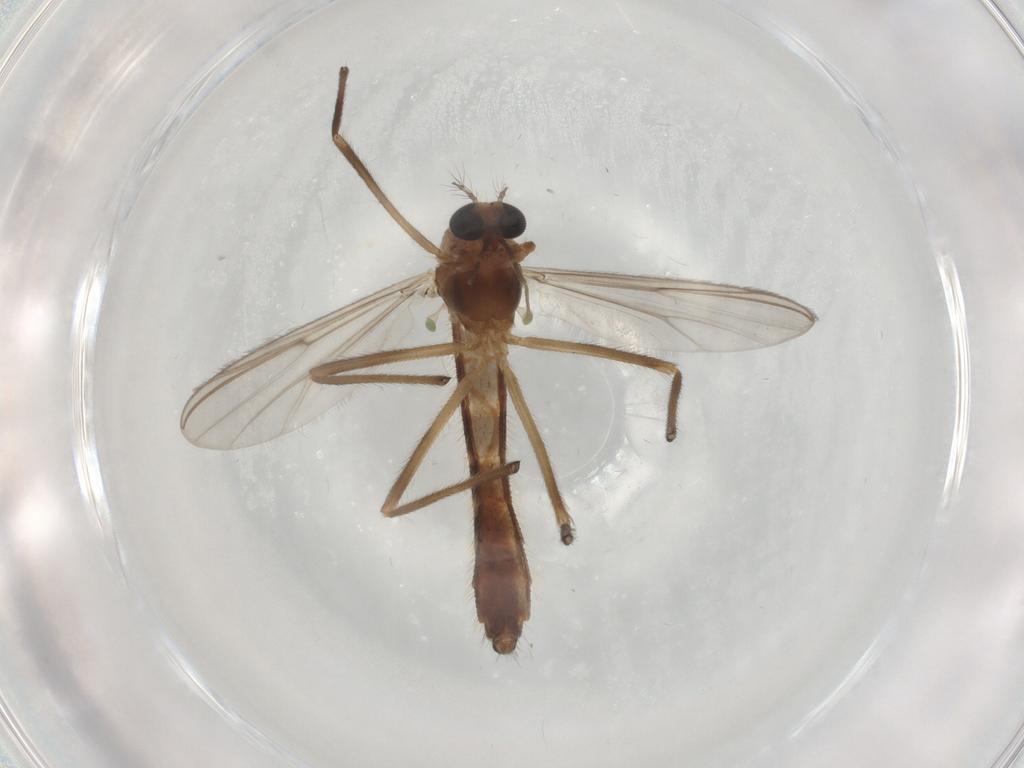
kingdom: Animalia
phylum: Arthropoda
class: Insecta
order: Diptera
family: Chironomidae
